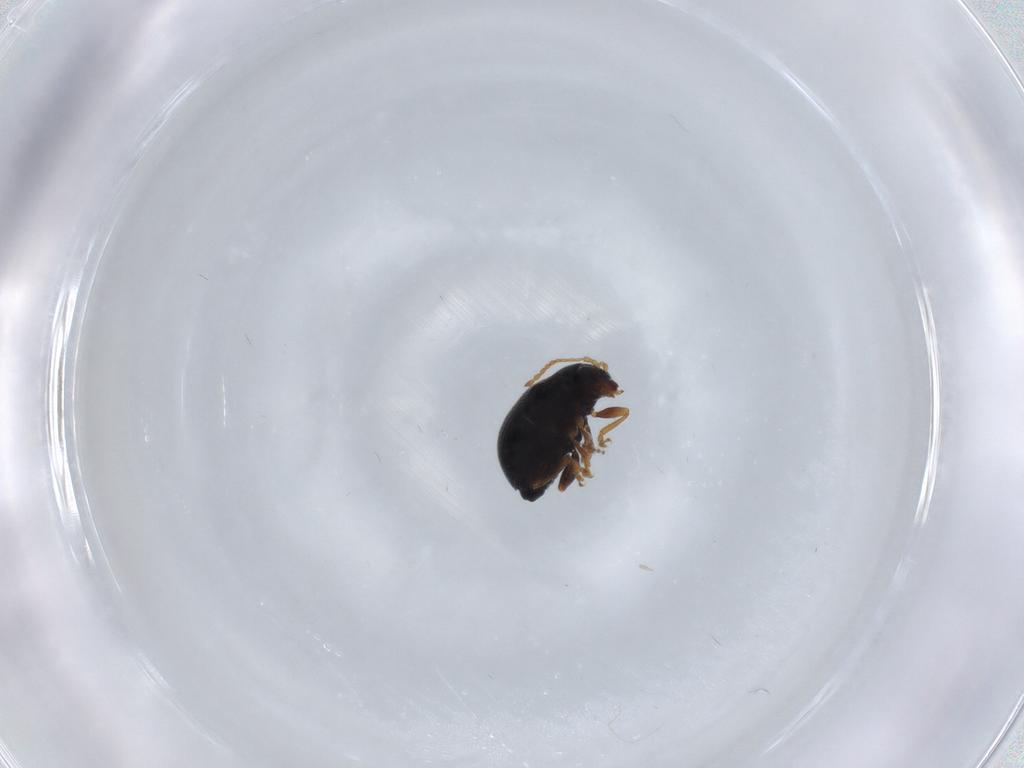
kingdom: Animalia
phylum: Arthropoda
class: Insecta
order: Coleoptera
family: Chrysomelidae
